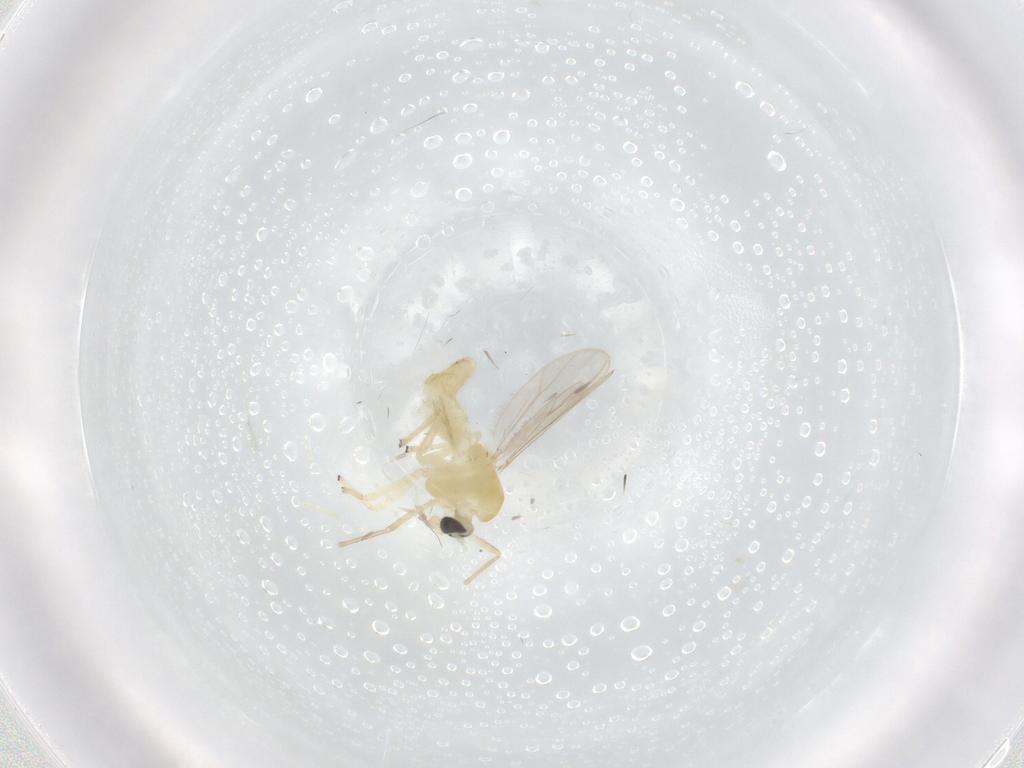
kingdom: Animalia
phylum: Arthropoda
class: Insecta
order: Diptera
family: Chironomidae
